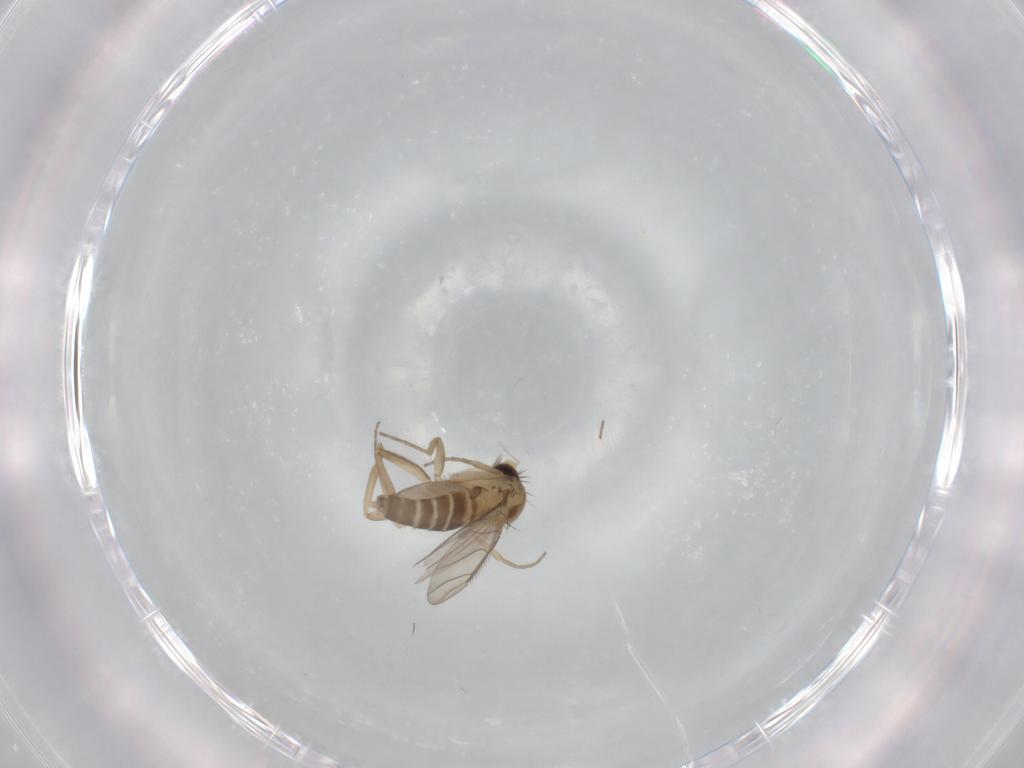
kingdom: Animalia
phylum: Arthropoda
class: Insecta
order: Diptera
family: Phoridae
